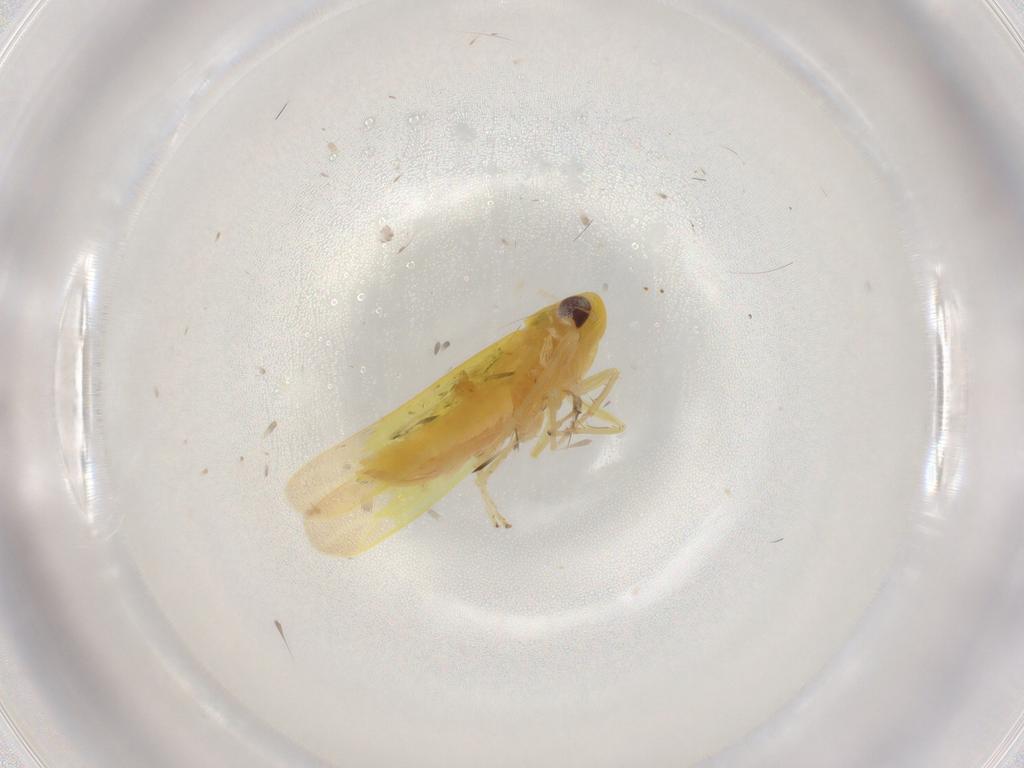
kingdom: Animalia
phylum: Arthropoda
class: Insecta
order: Hemiptera
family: Cicadellidae
